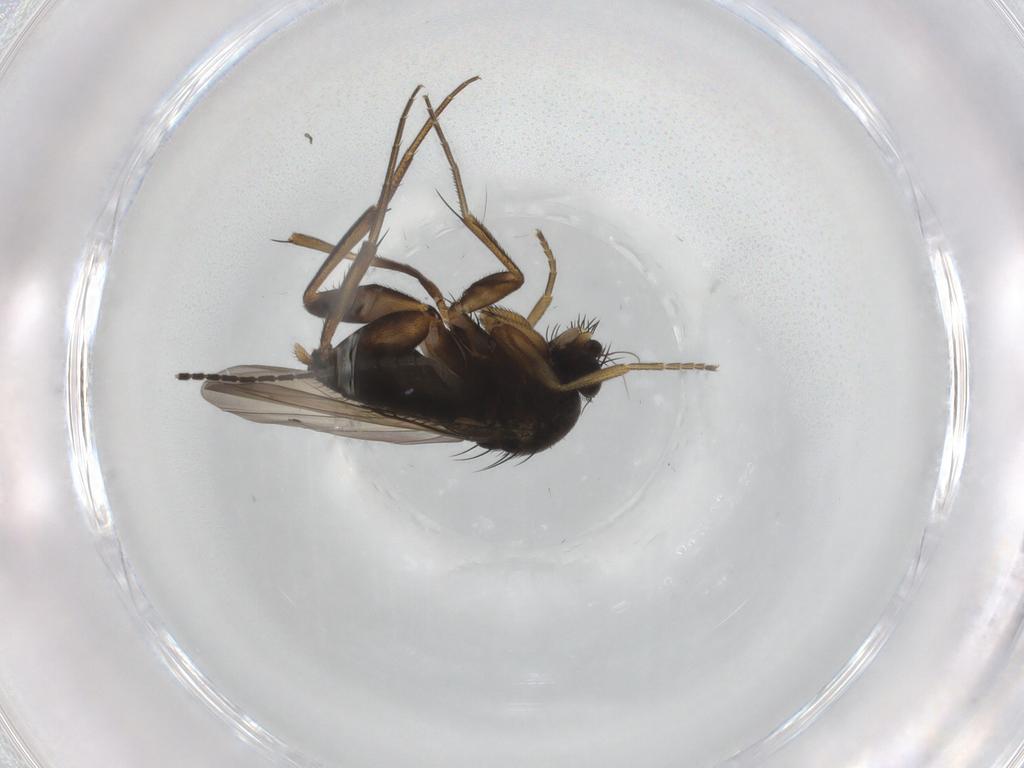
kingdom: Animalia
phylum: Arthropoda
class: Insecta
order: Diptera
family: Phoridae
